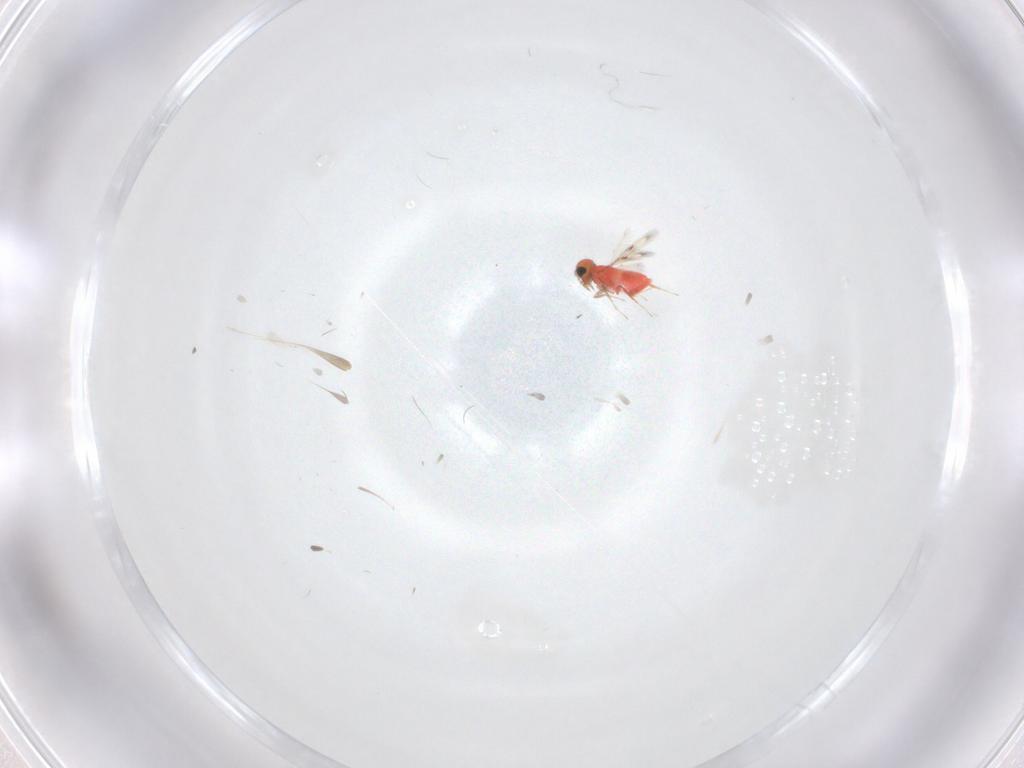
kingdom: Animalia
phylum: Arthropoda
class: Insecta
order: Hymenoptera
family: Trichogrammatidae
